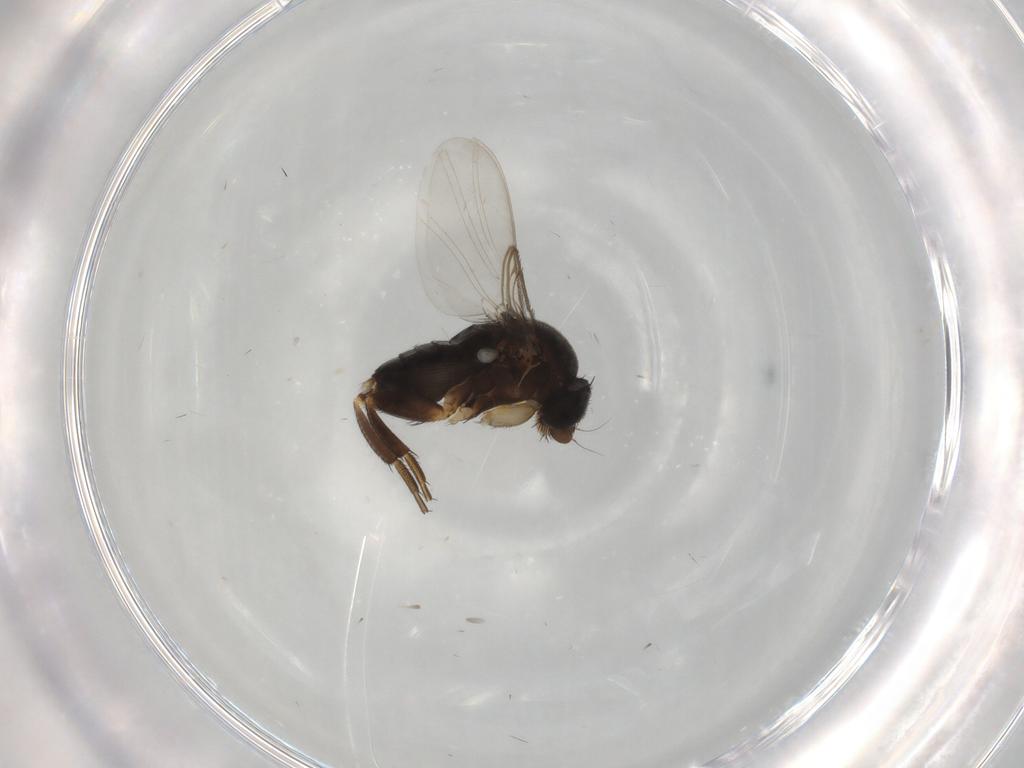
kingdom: Animalia
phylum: Arthropoda
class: Insecta
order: Diptera
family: Phoridae
